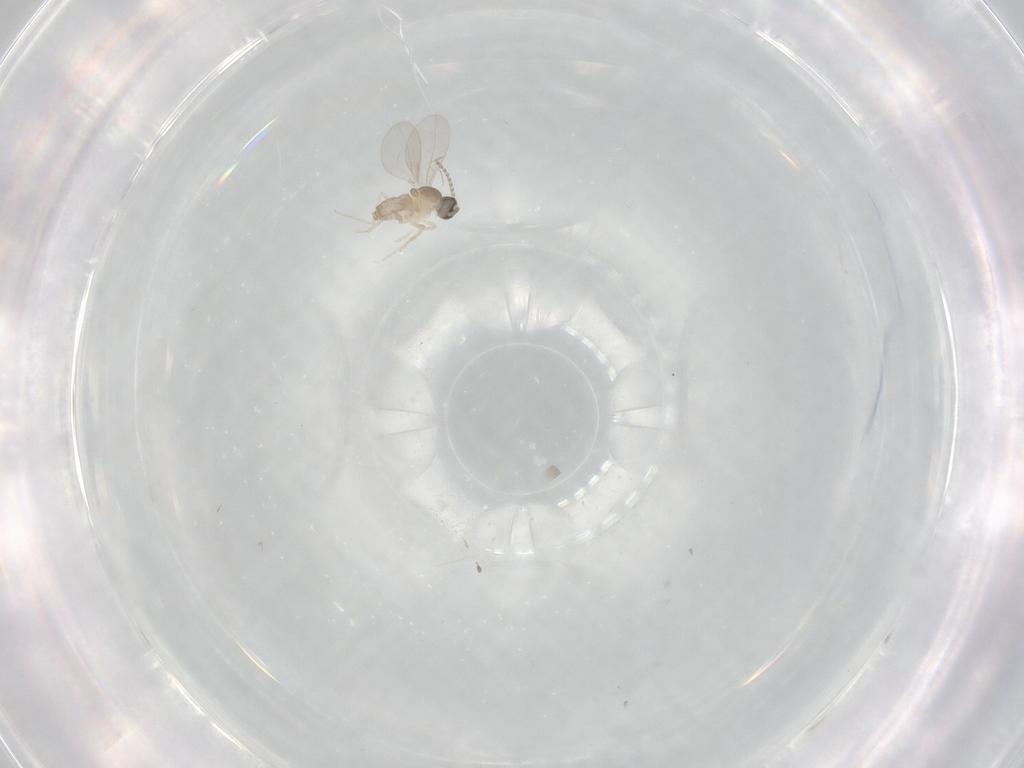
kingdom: Animalia
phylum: Arthropoda
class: Insecta
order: Diptera
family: Psychodidae
